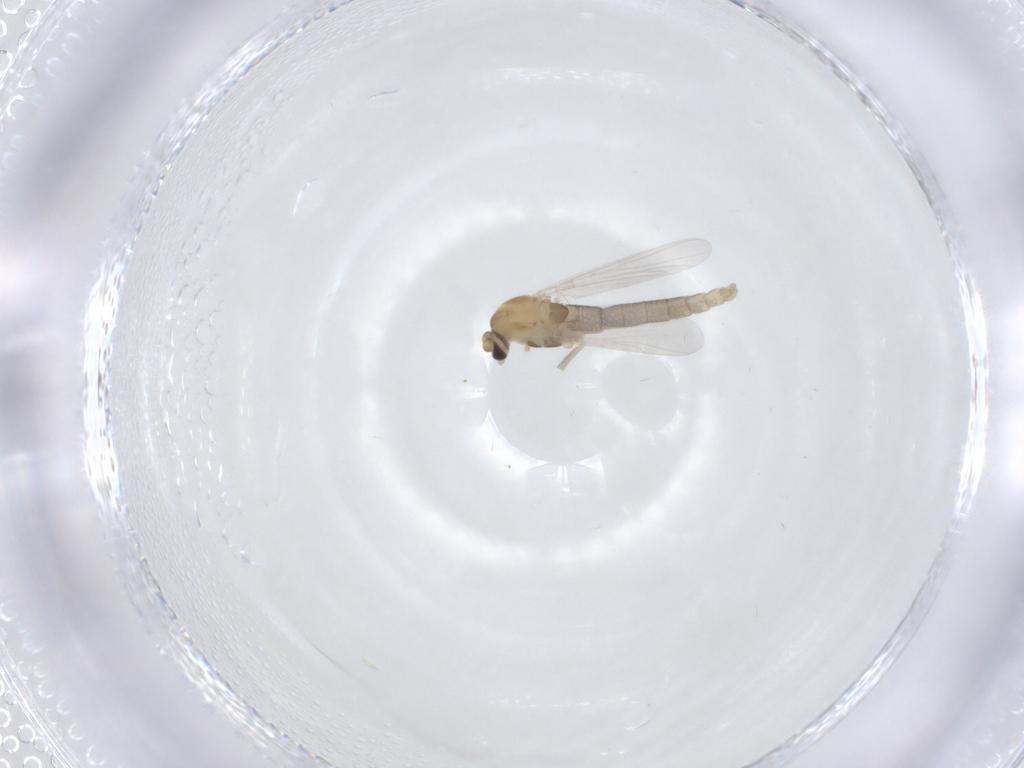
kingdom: Animalia
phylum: Arthropoda
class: Insecta
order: Diptera
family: Chironomidae
